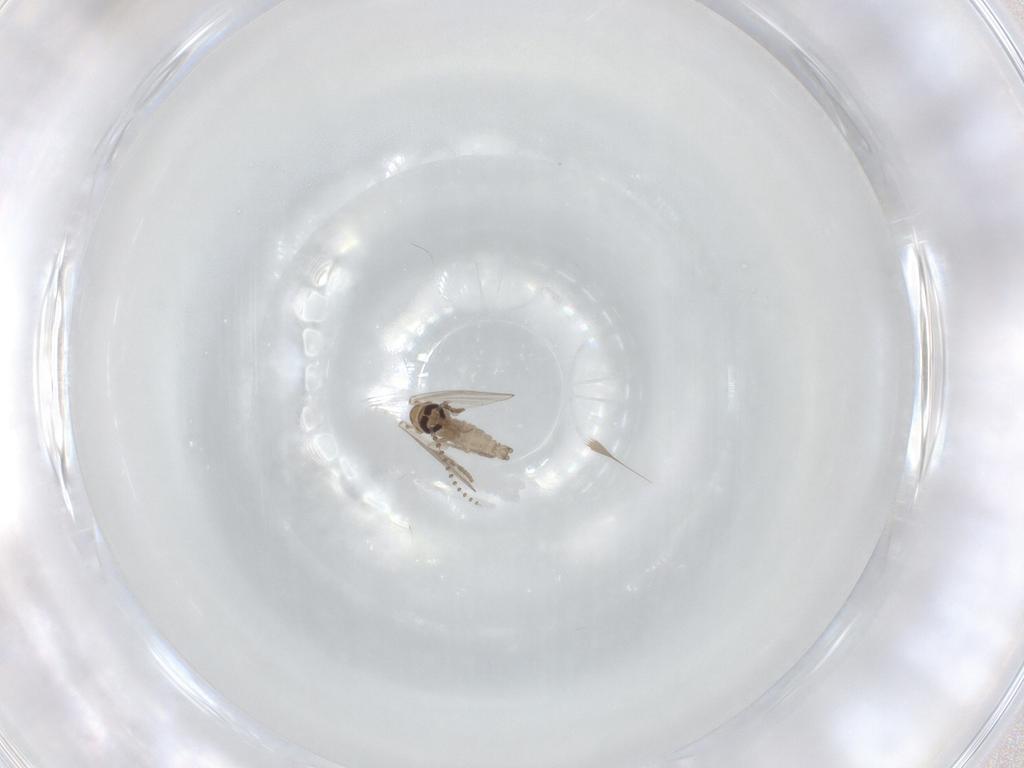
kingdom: Animalia
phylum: Arthropoda
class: Insecta
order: Diptera
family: Psychodidae
